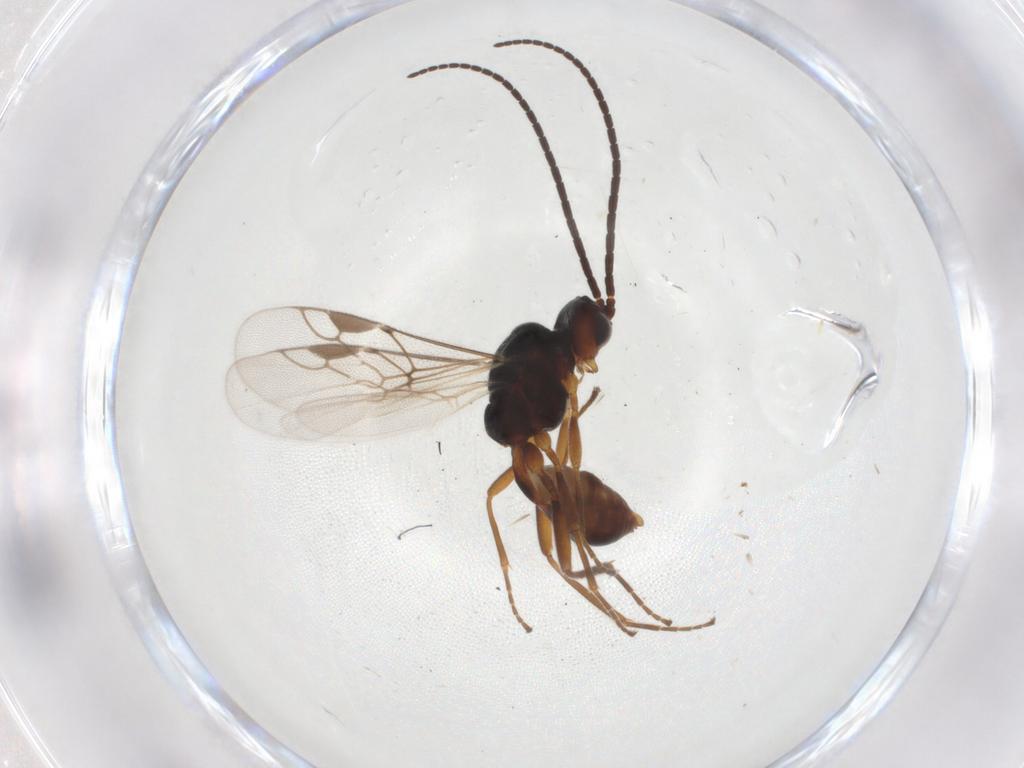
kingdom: Animalia
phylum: Arthropoda
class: Insecta
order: Hymenoptera
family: Braconidae
